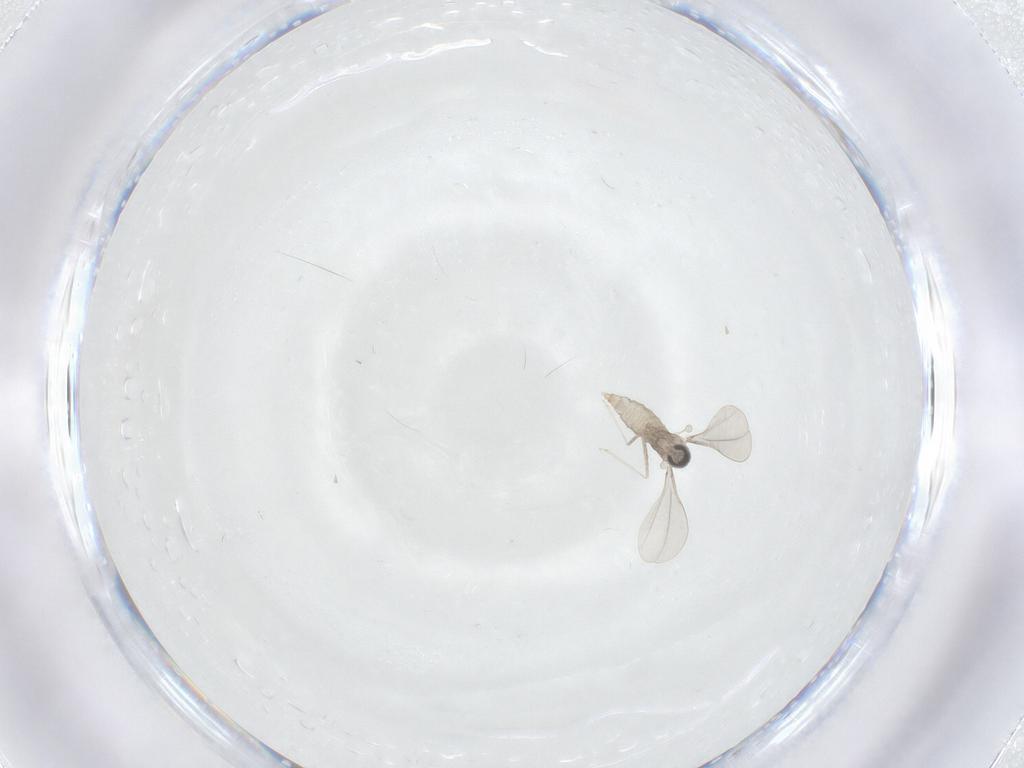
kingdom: Animalia
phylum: Arthropoda
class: Insecta
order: Diptera
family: Cecidomyiidae
